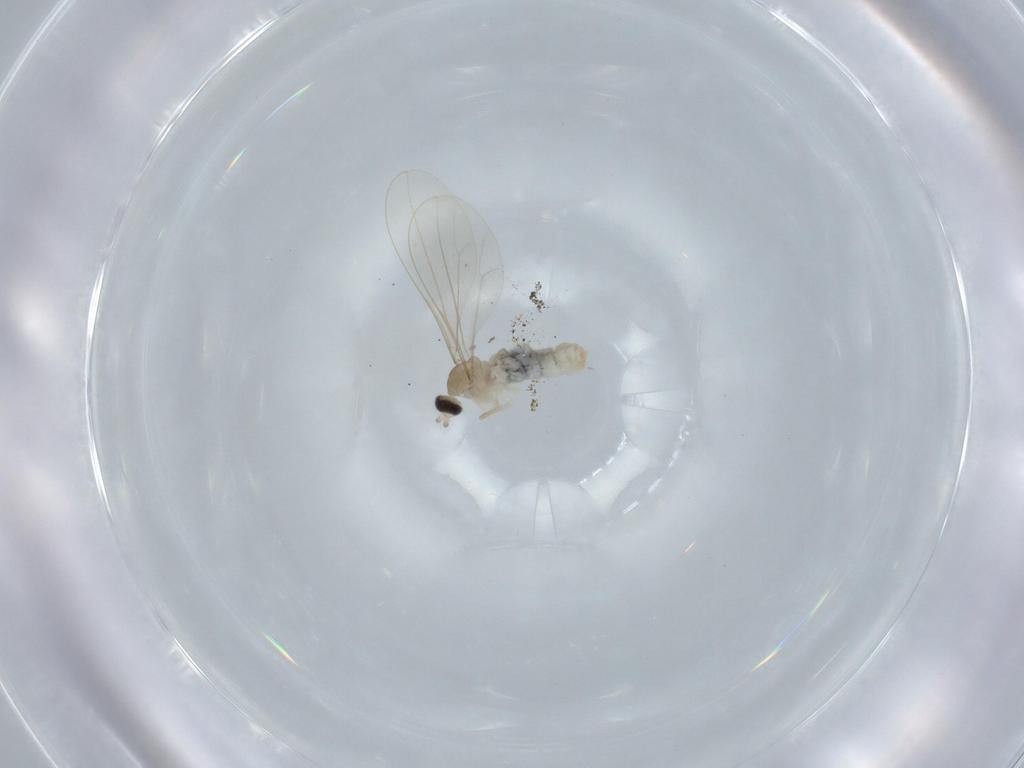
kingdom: Animalia
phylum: Arthropoda
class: Insecta
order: Diptera
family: Cecidomyiidae
